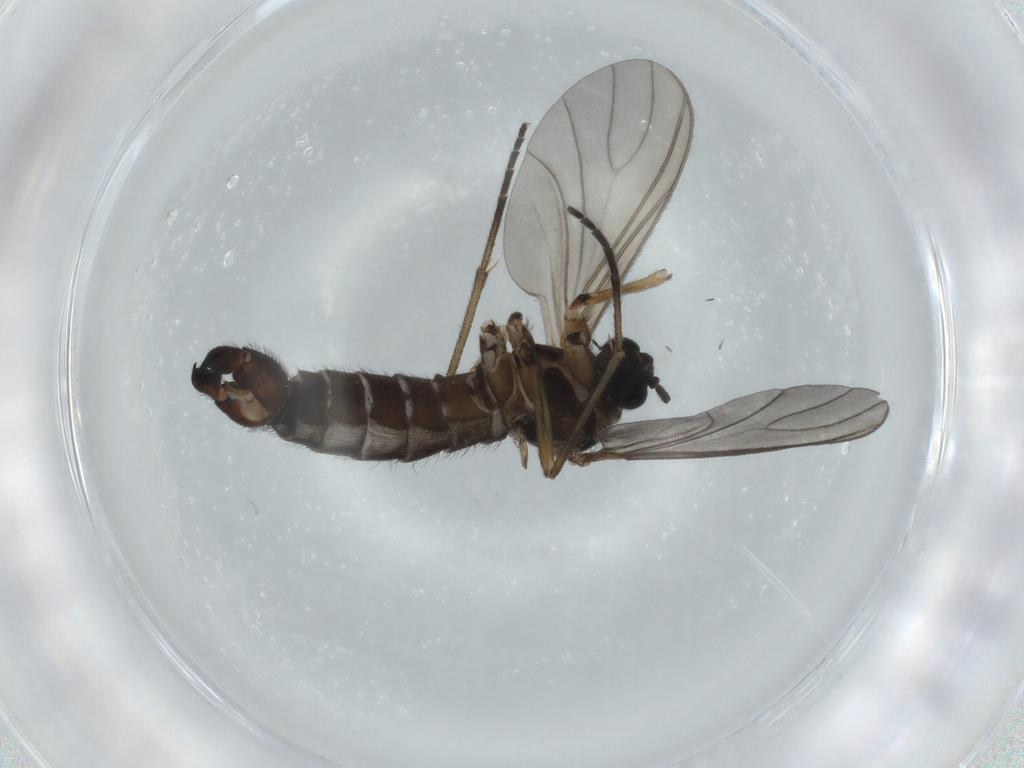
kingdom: Animalia
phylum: Arthropoda
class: Insecta
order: Diptera
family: Sciaridae
